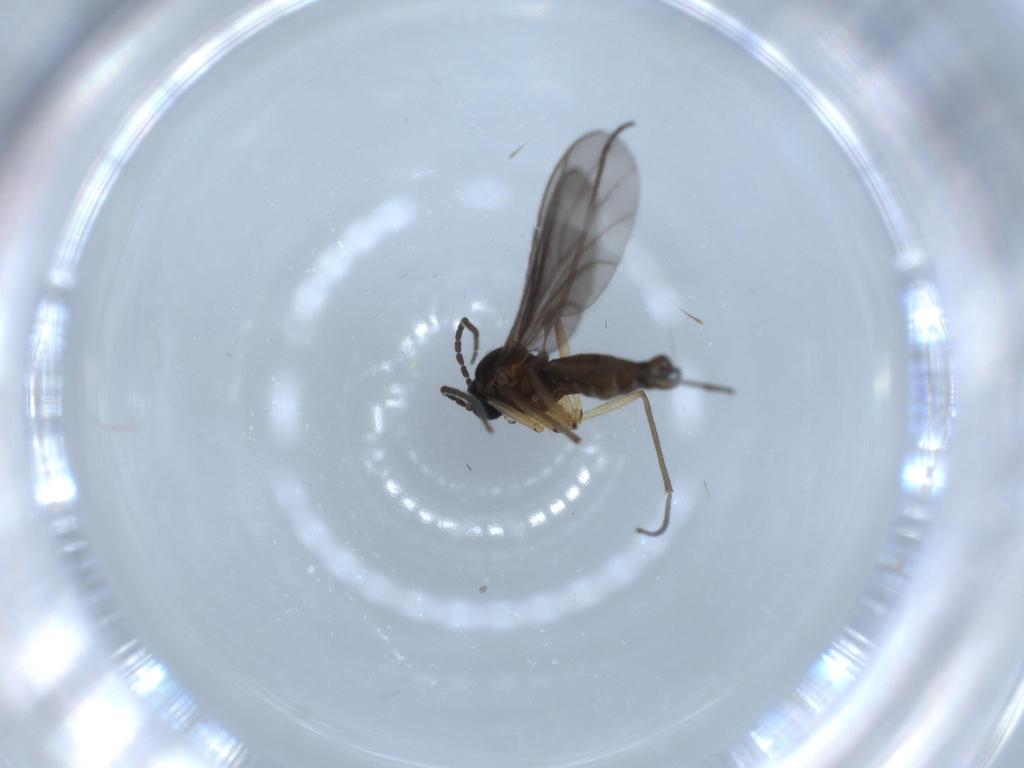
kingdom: Animalia
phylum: Arthropoda
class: Insecta
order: Diptera
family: Sciaridae
